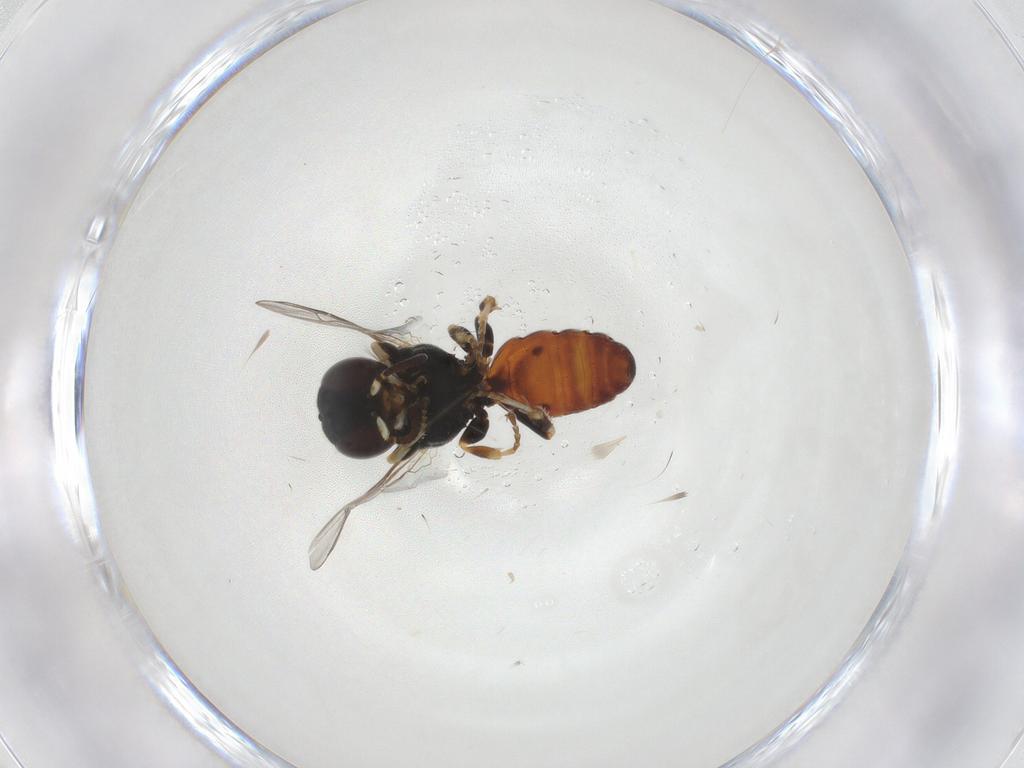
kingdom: Animalia
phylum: Arthropoda
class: Insecta
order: Hymenoptera
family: Crabronidae
